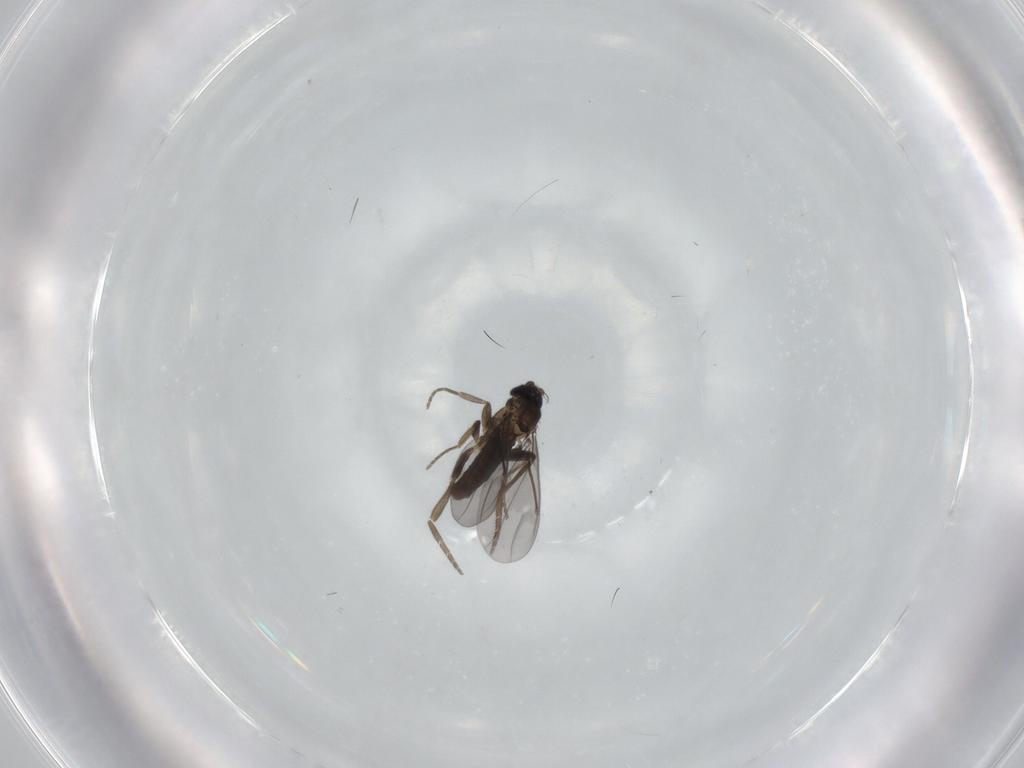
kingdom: Animalia
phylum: Arthropoda
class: Insecta
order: Diptera
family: Phoridae
